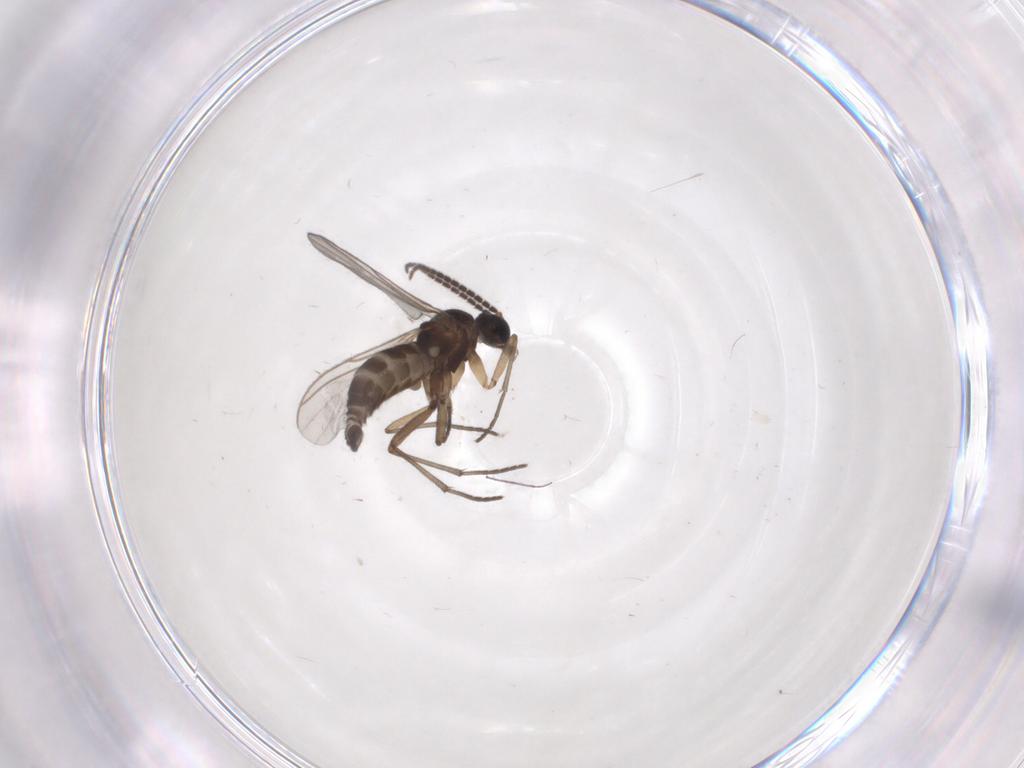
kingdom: Animalia
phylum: Arthropoda
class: Insecta
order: Diptera
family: Sciaridae
